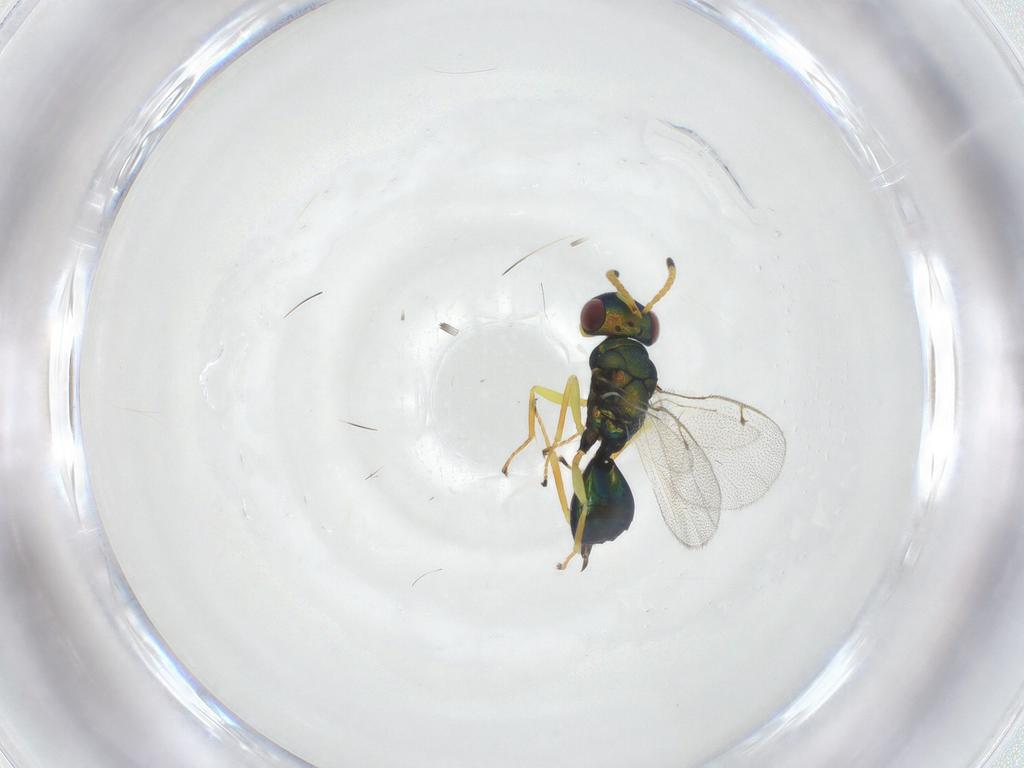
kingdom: Animalia
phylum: Arthropoda
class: Insecta
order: Hymenoptera
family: Pteromalidae
